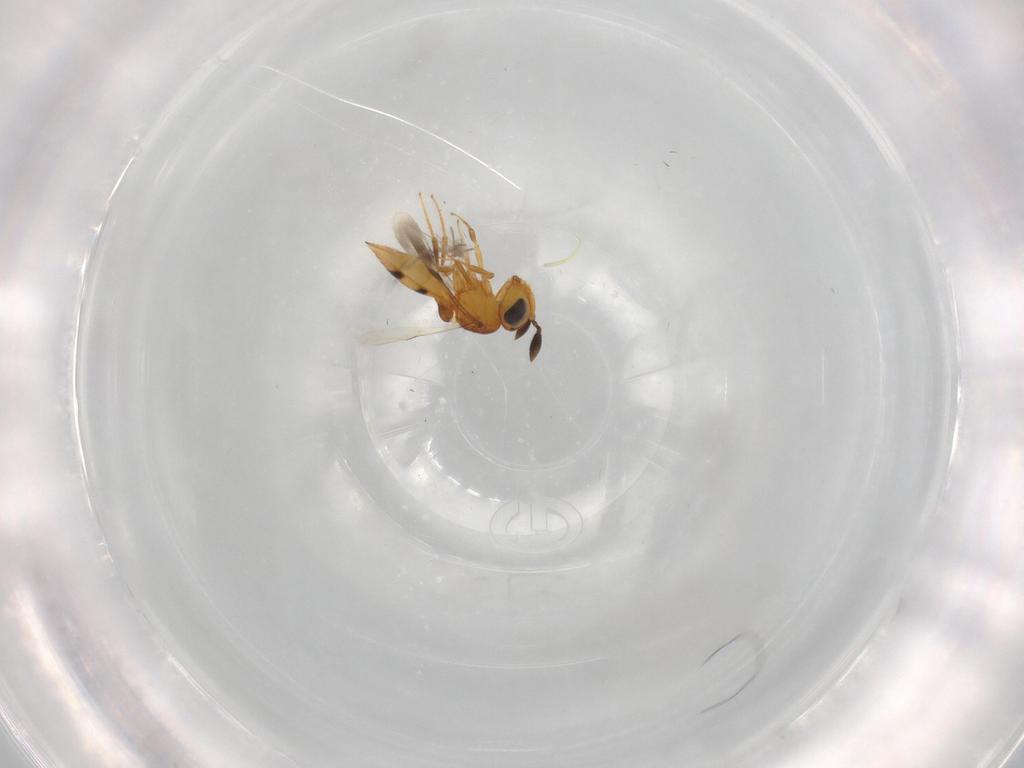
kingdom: Animalia
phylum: Arthropoda
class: Insecta
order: Hymenoptera
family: Scelionidae
